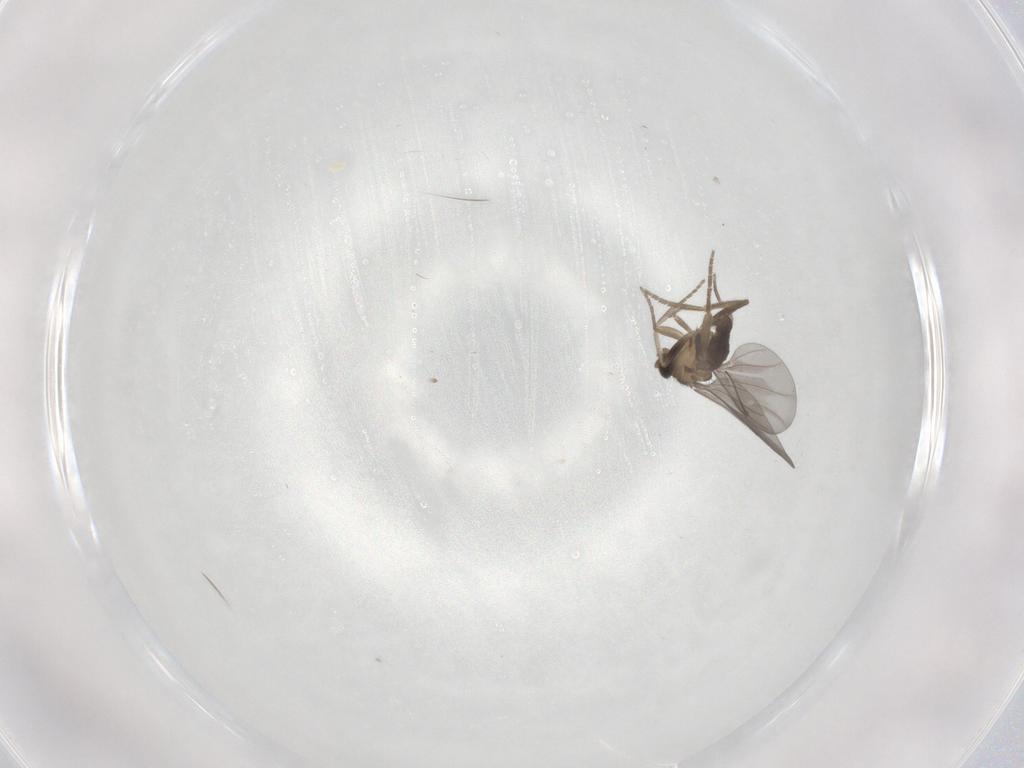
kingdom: Animalia
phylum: Arthropoda
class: Insecta
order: Diptera
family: Phoridae
